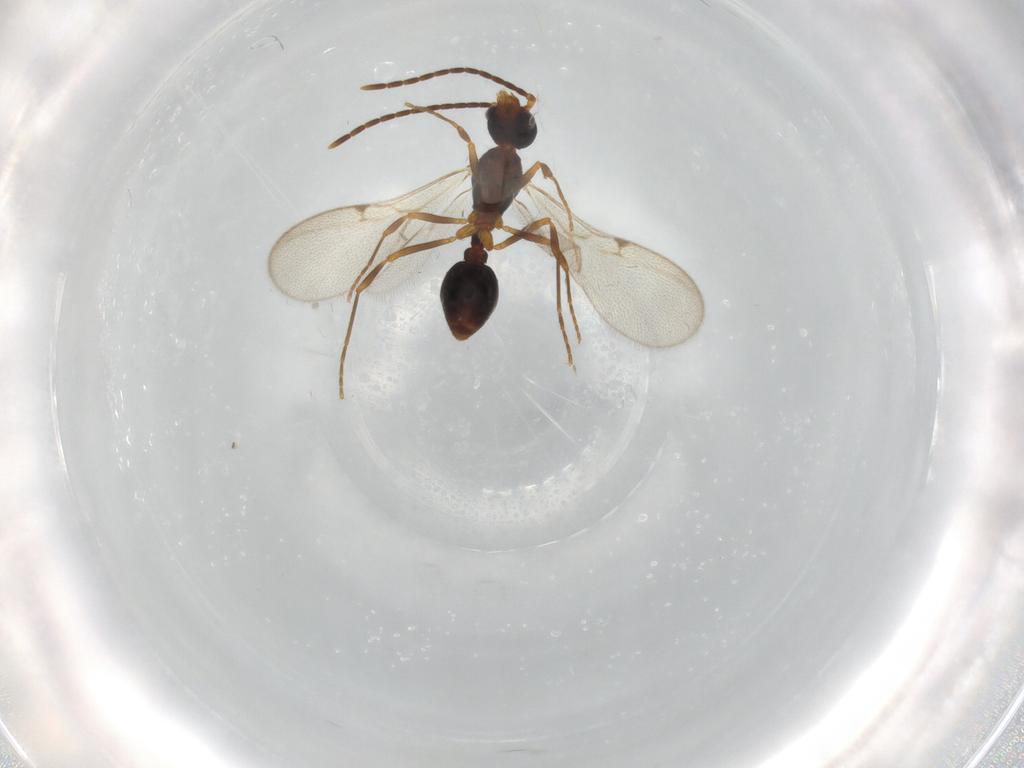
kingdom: Animalia
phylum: Arthropoda
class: Insecta
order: Hymenoptera
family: Formicidae
